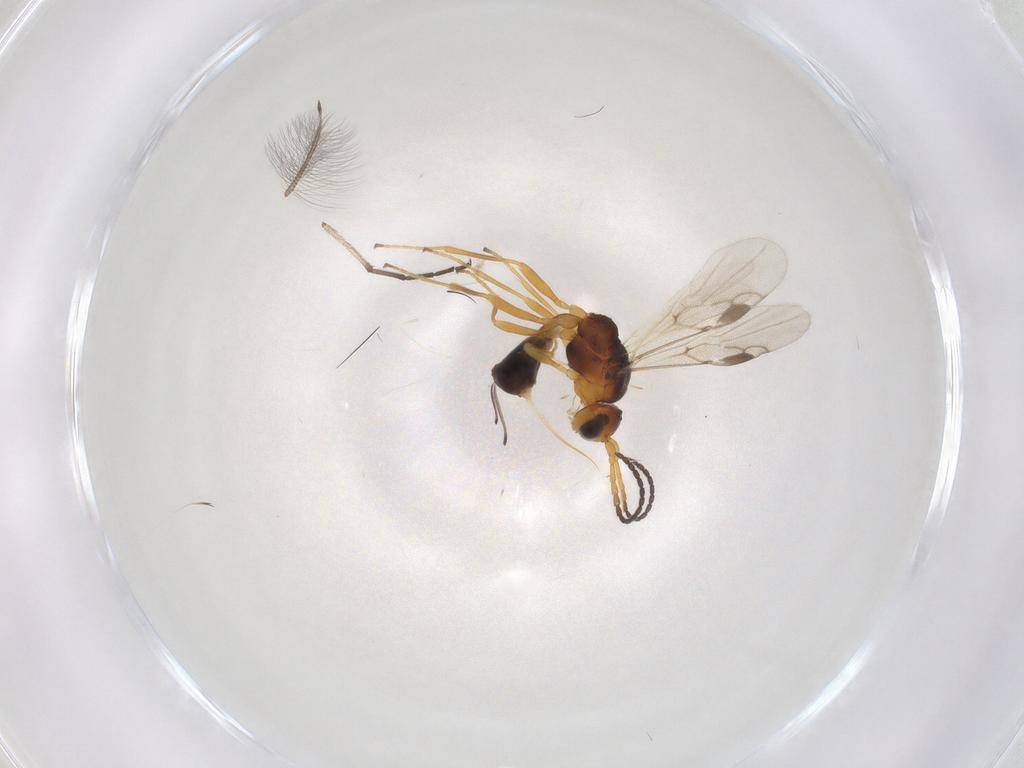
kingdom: Animalia
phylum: Arthropoda
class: Insecta
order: Hymenoptera
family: Braconidae
